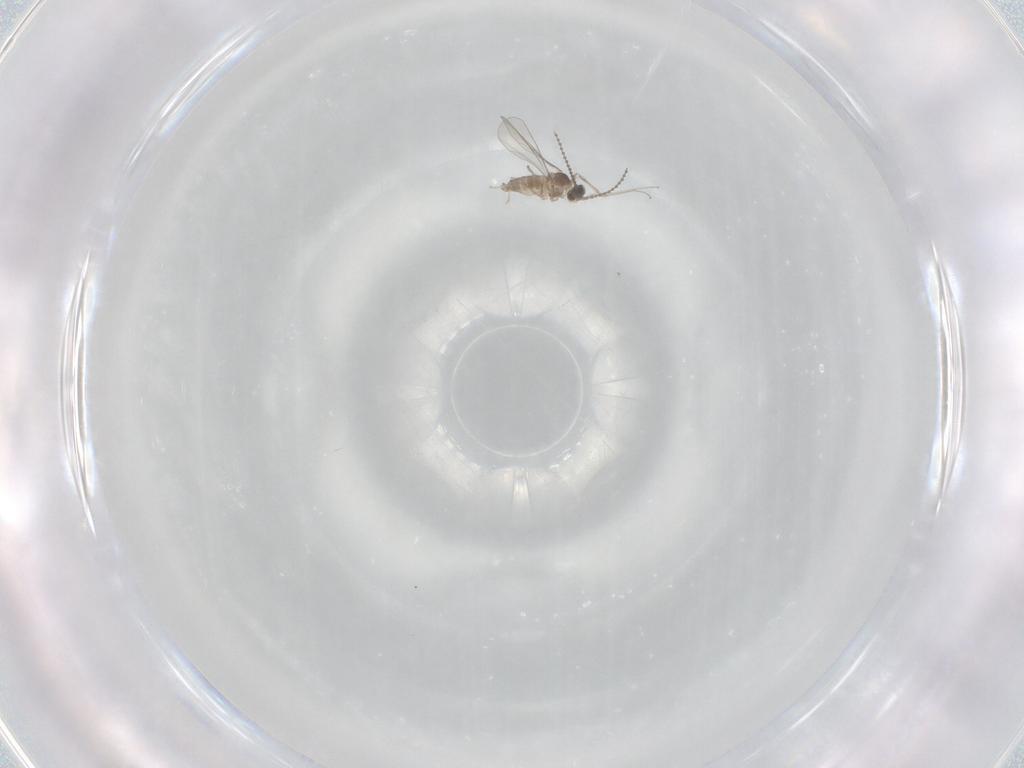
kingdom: Animalia
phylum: Arthropoda
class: Insecta
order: Diptera
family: Cecidomyiidae
